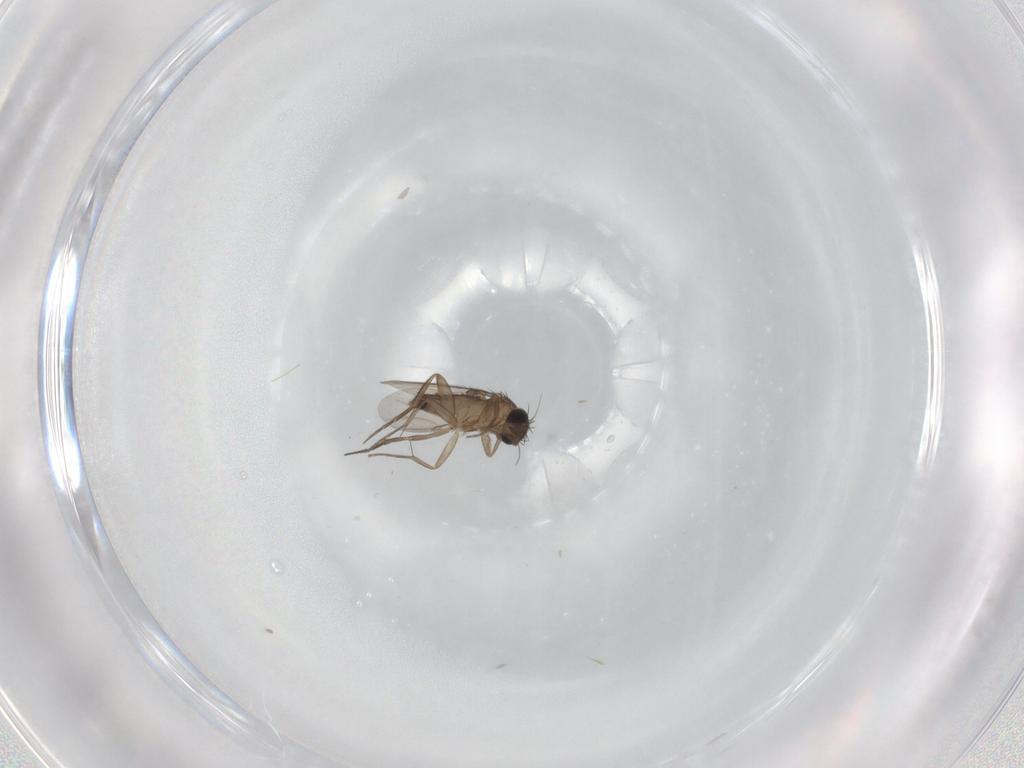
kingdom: Animalia
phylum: Arthropoda
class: Insecta
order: Diptera
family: Phoridae
